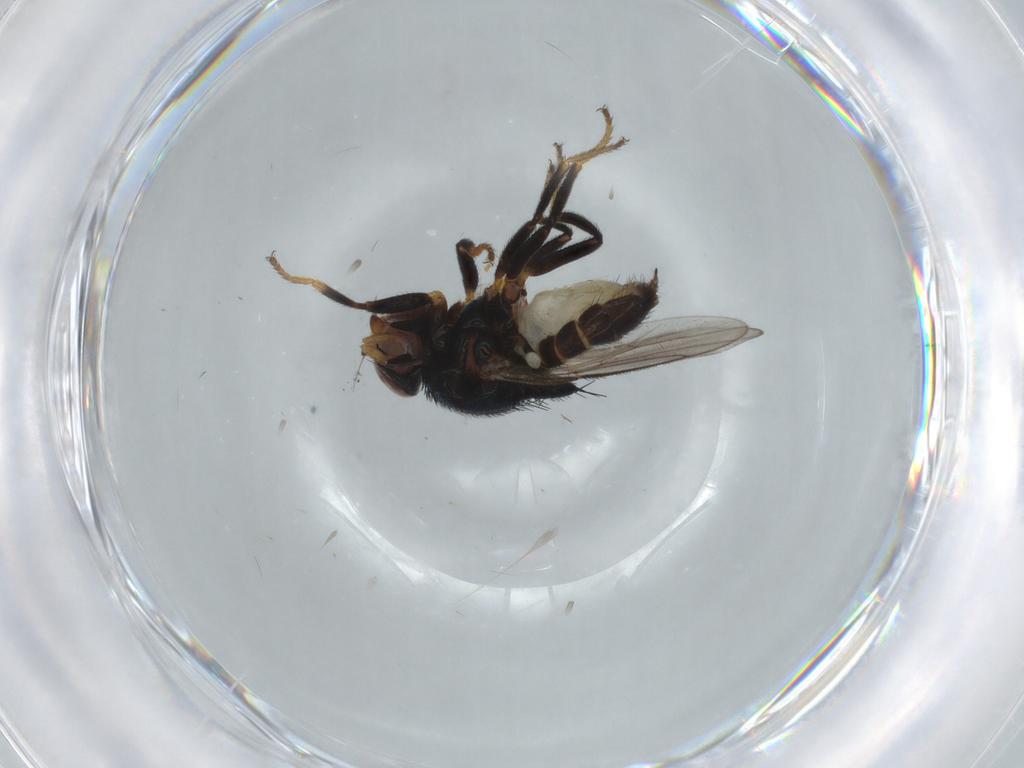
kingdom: Animalia
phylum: Arthropoda
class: Insecta
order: Diptera
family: Chloropidae
